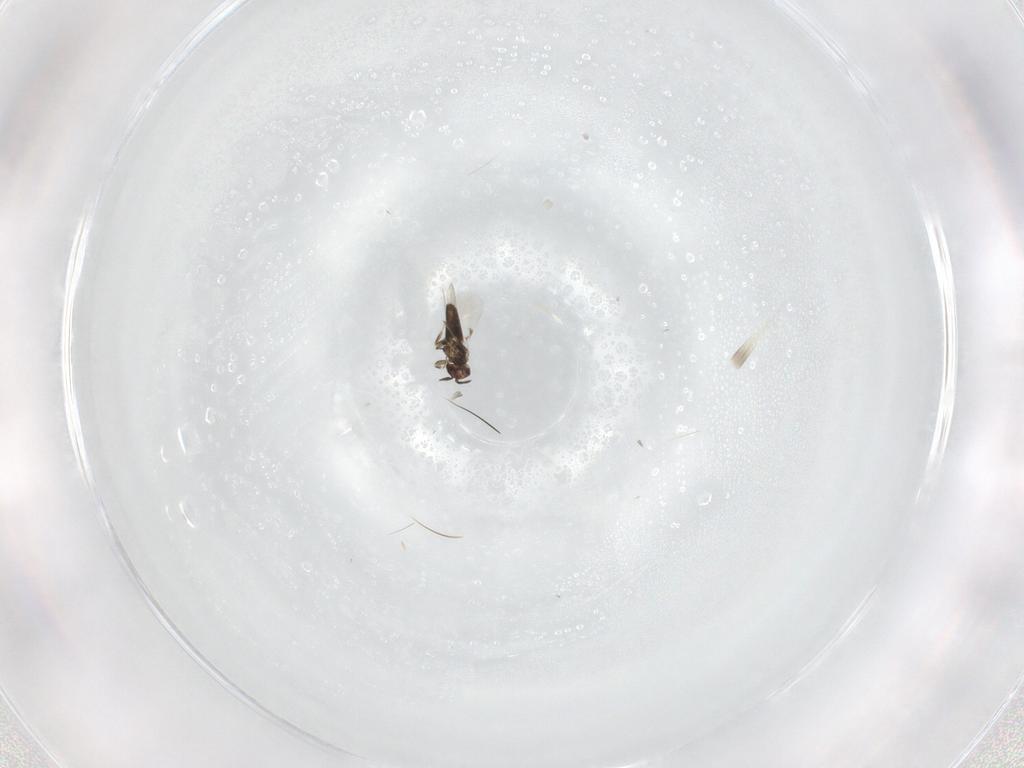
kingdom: Animalia
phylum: Arthropoda
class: Insecta
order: Hymenoptera
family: Trichogrammatidae
